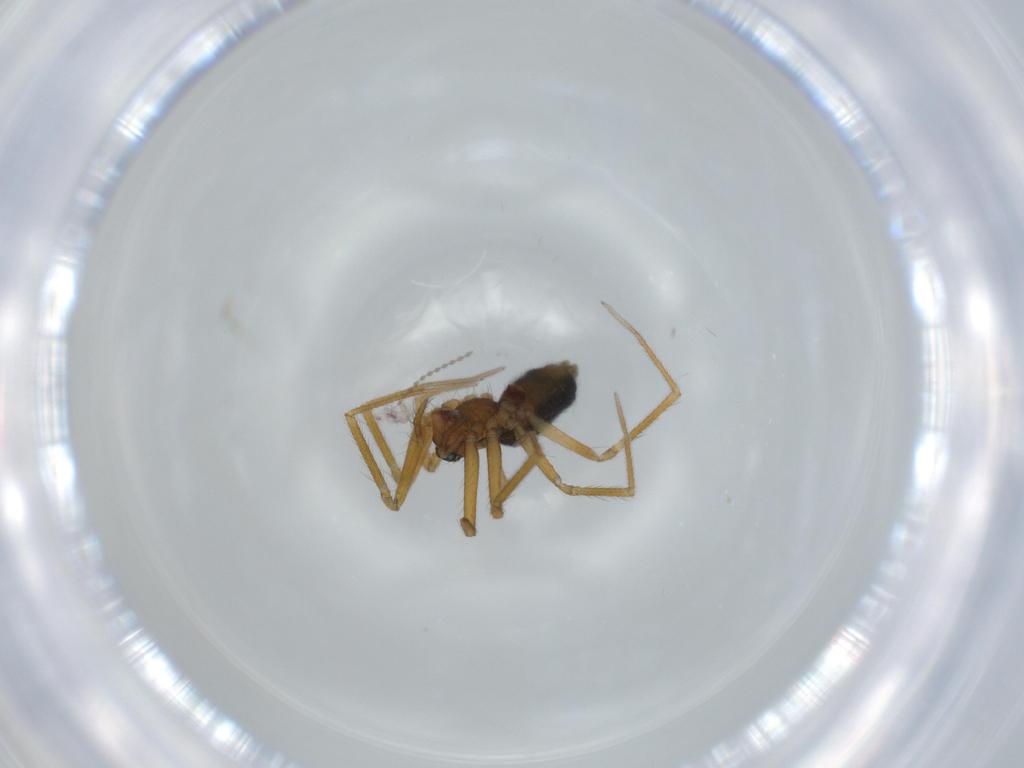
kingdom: Animalia
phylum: Arthropoda
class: Arachnida
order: Araneae
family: Linyphiidae
